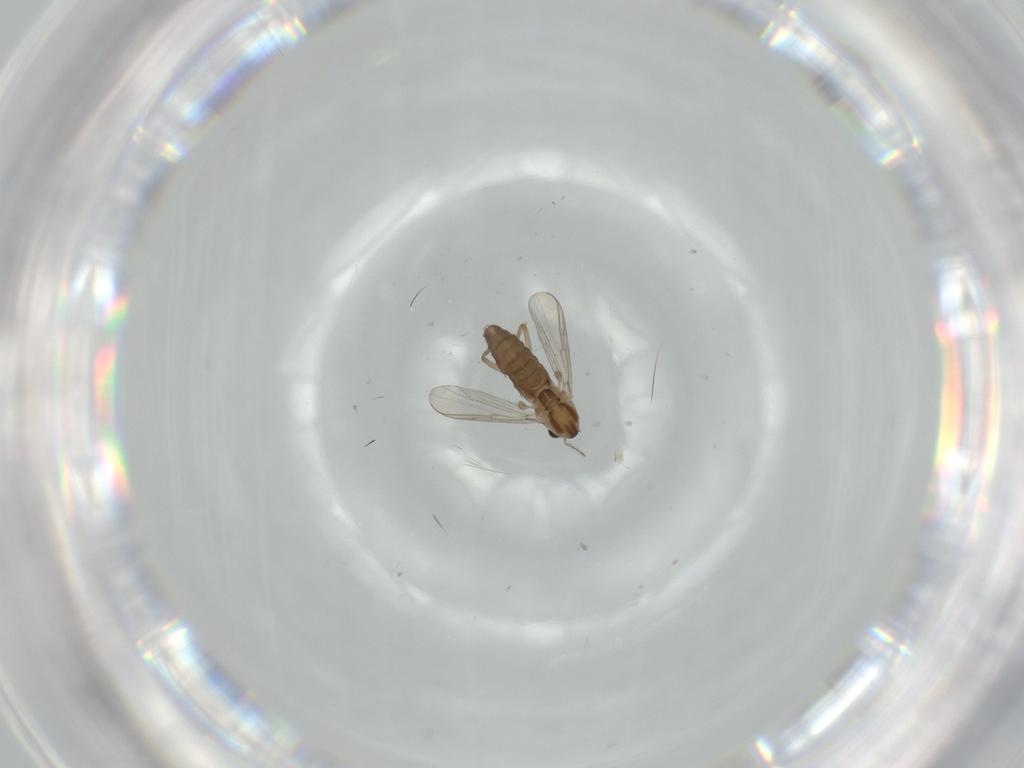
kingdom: Animalia
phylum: Arthropoda
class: Insecta
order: Diptera
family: Chironomidae
